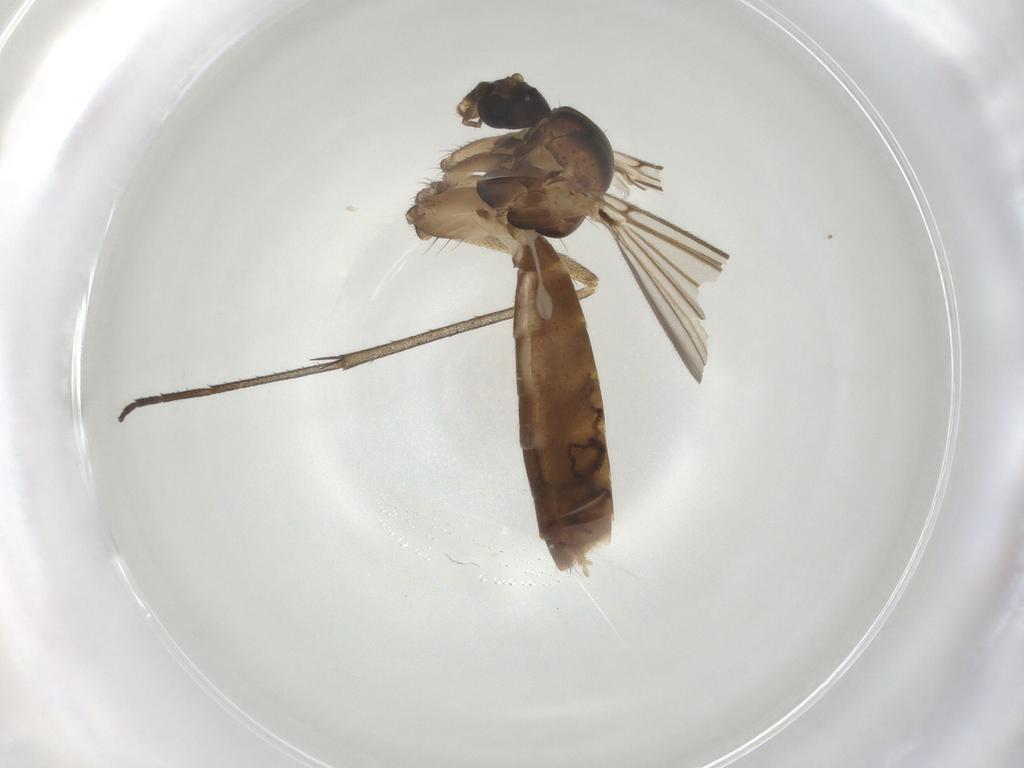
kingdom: Animalia
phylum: Arthropoda
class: Insecta
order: Diptera
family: Mycetophilidae
